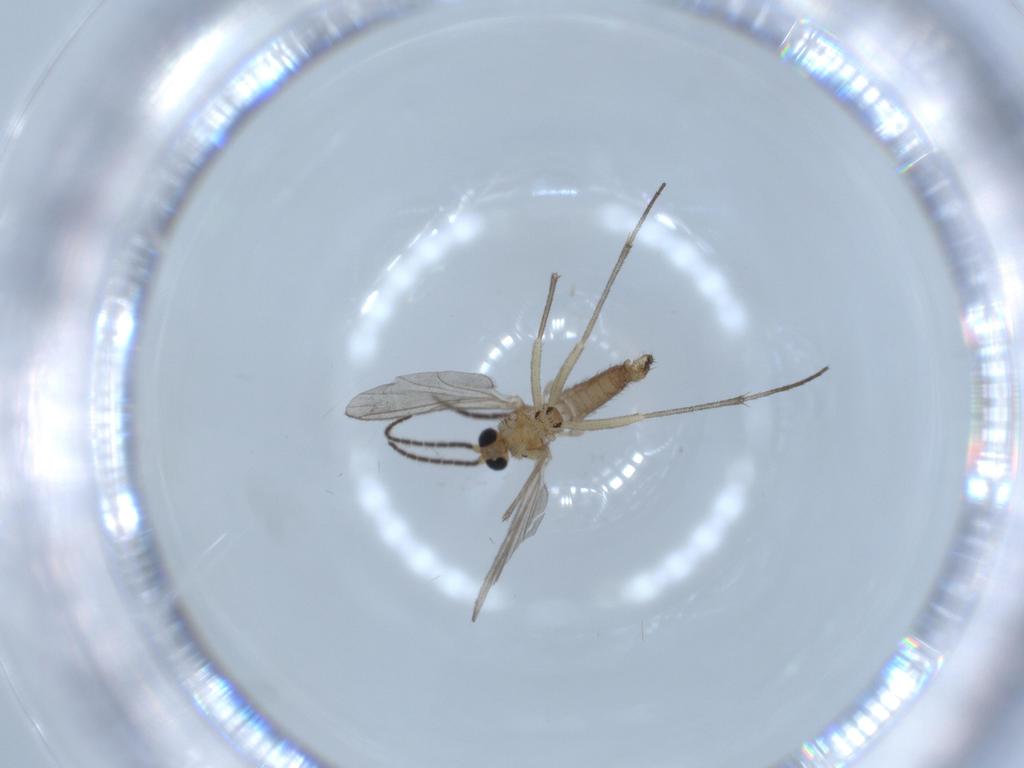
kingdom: Animalia
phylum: Arthropoda
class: Insecta
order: Diptera
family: Sciaridae
